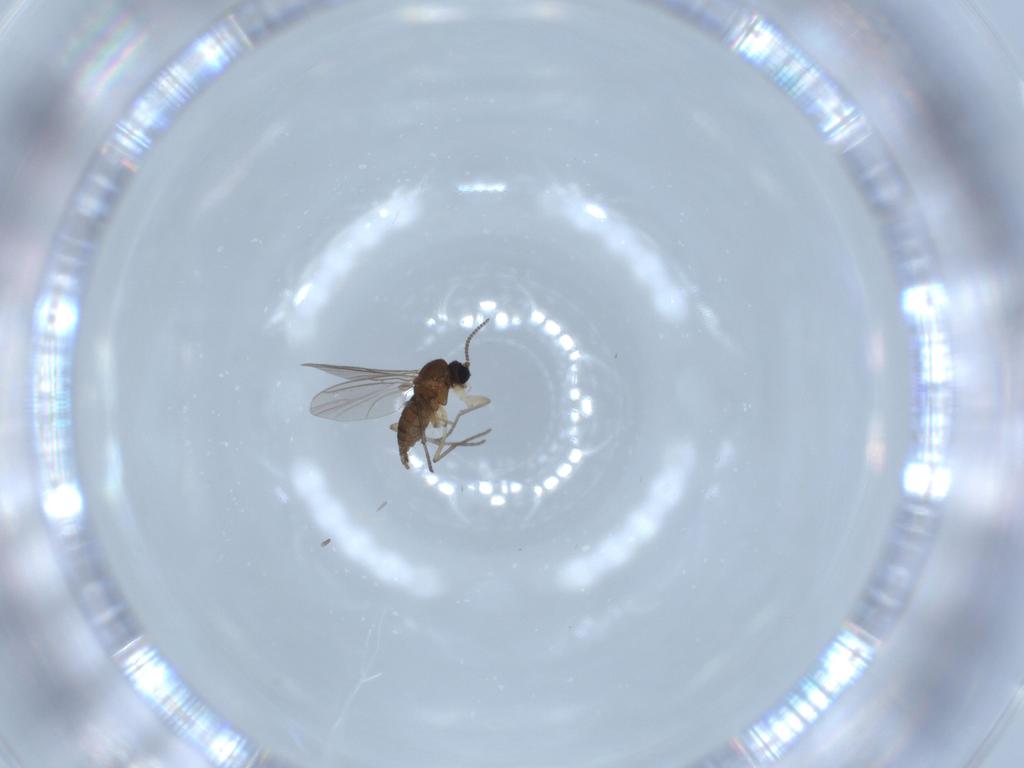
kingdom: Animalia
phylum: Arthropoda
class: Insecta
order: Diptera
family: Sciaridae
